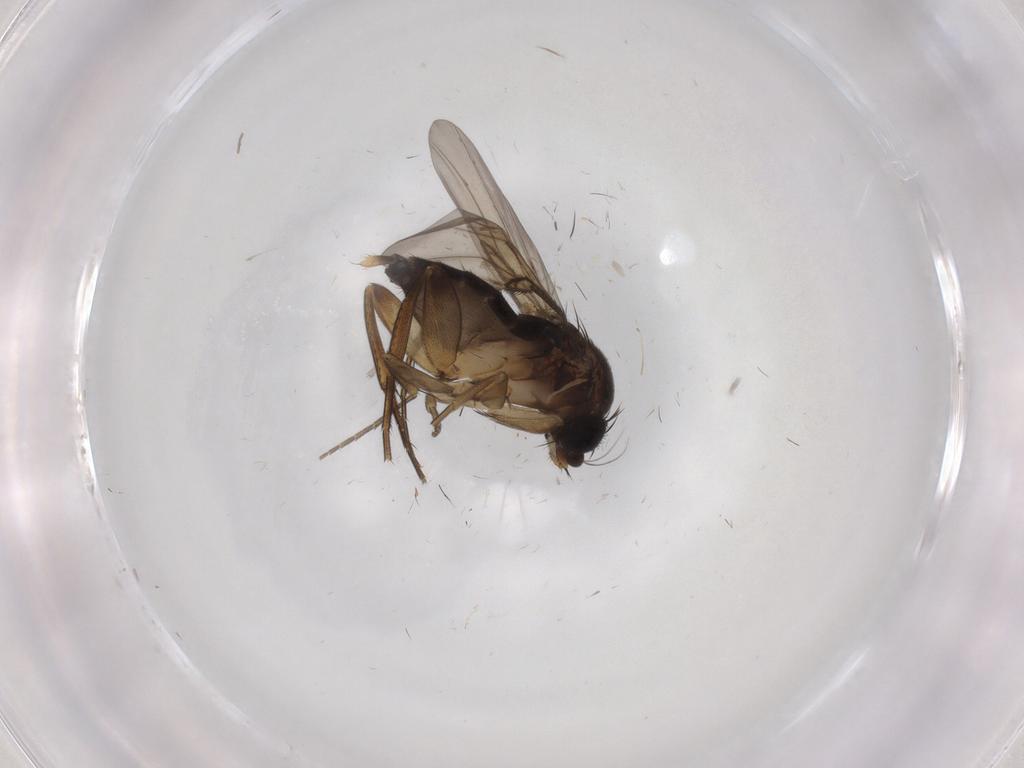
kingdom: Animalia
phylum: Arthropoda
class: Insecta
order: Diptera
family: Phoridae
